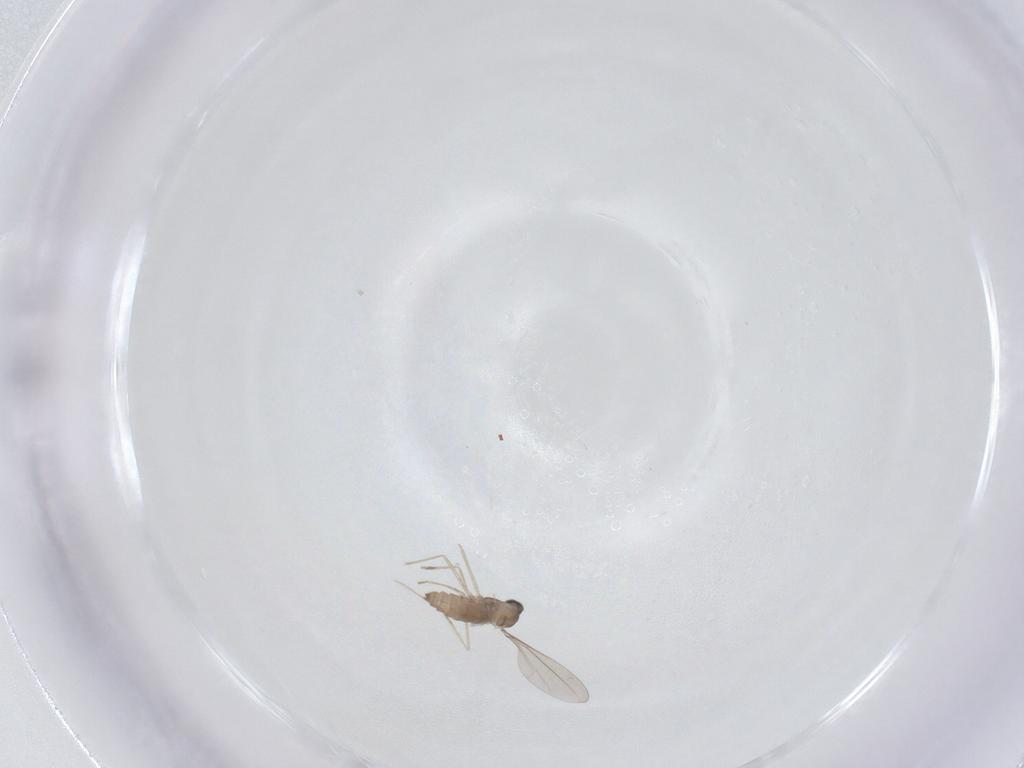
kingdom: Animalia
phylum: Arthropoda
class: Insecta
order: Diptera
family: Cecidomyiidae
